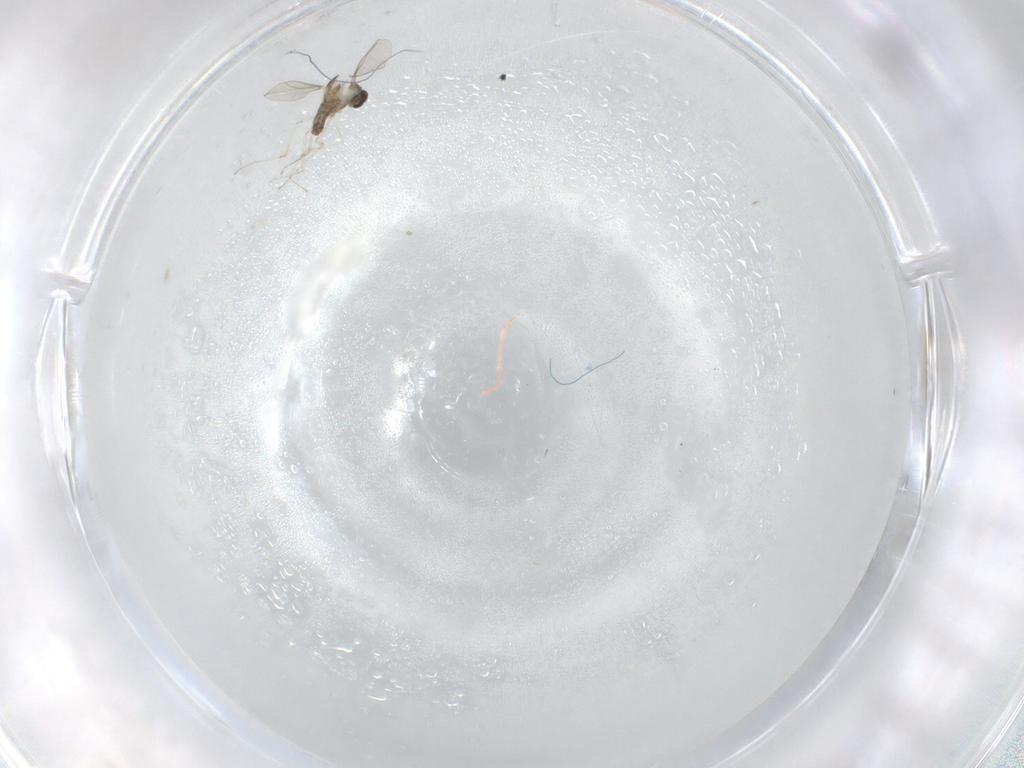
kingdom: Animalia
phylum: Arthropoda
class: Insecta
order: Diptera
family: Cecidomyiidae
